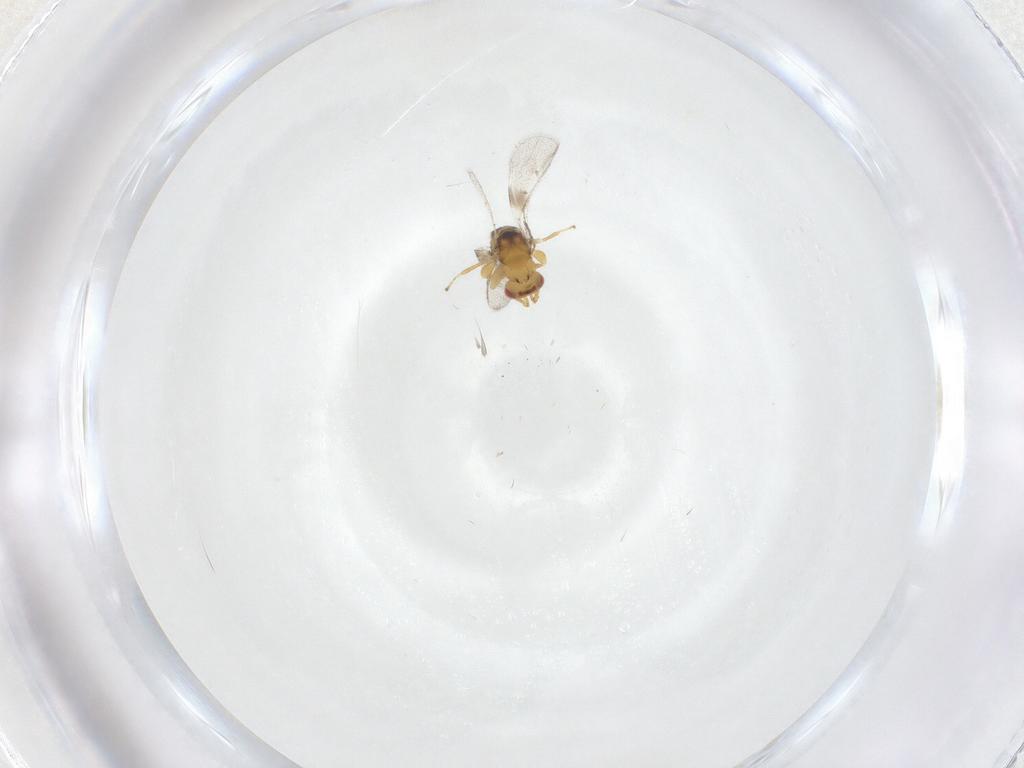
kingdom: Animalia
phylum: Arthropoda
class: Insecta
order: Hymenoptera
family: Torymidae
